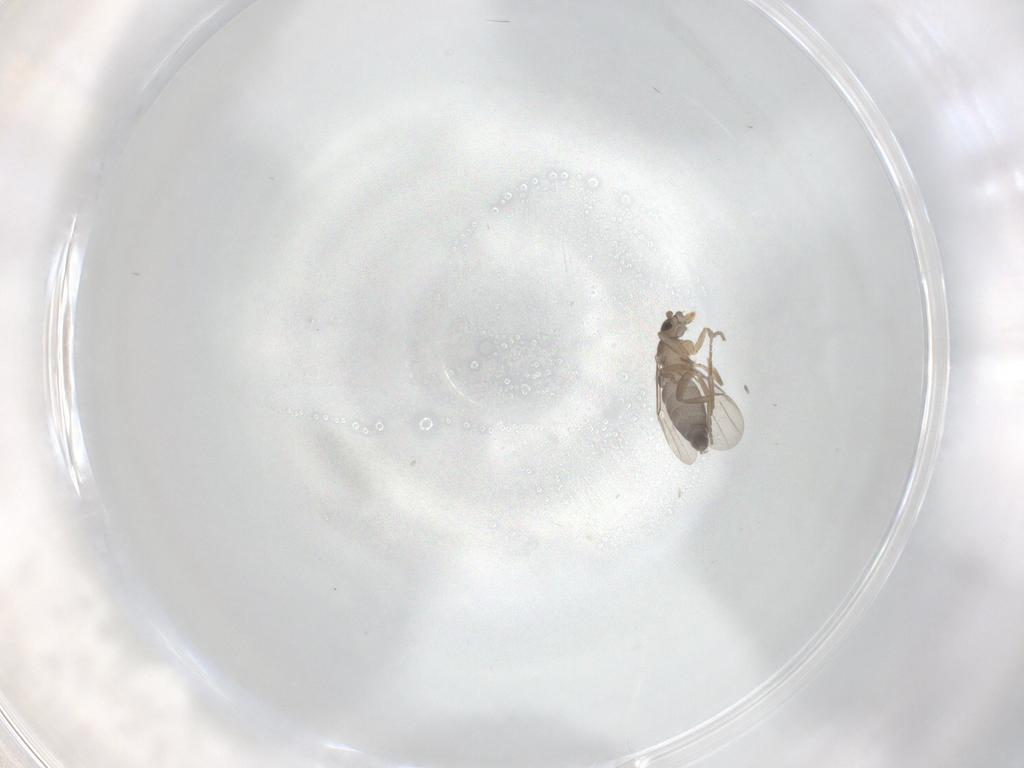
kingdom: Animalia
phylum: Arthropoda
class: Insecta
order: Diptera
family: Phoridae
